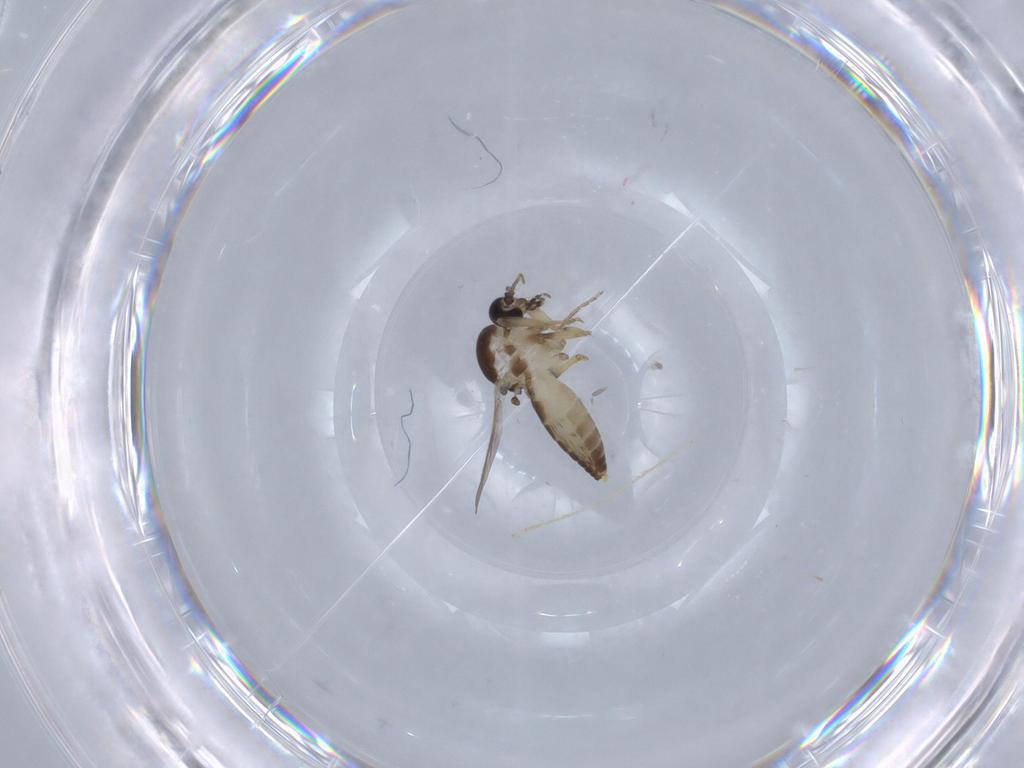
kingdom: Animalia
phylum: Arthropoda
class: Insecta
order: Diptera
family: Ceratopogonidae
